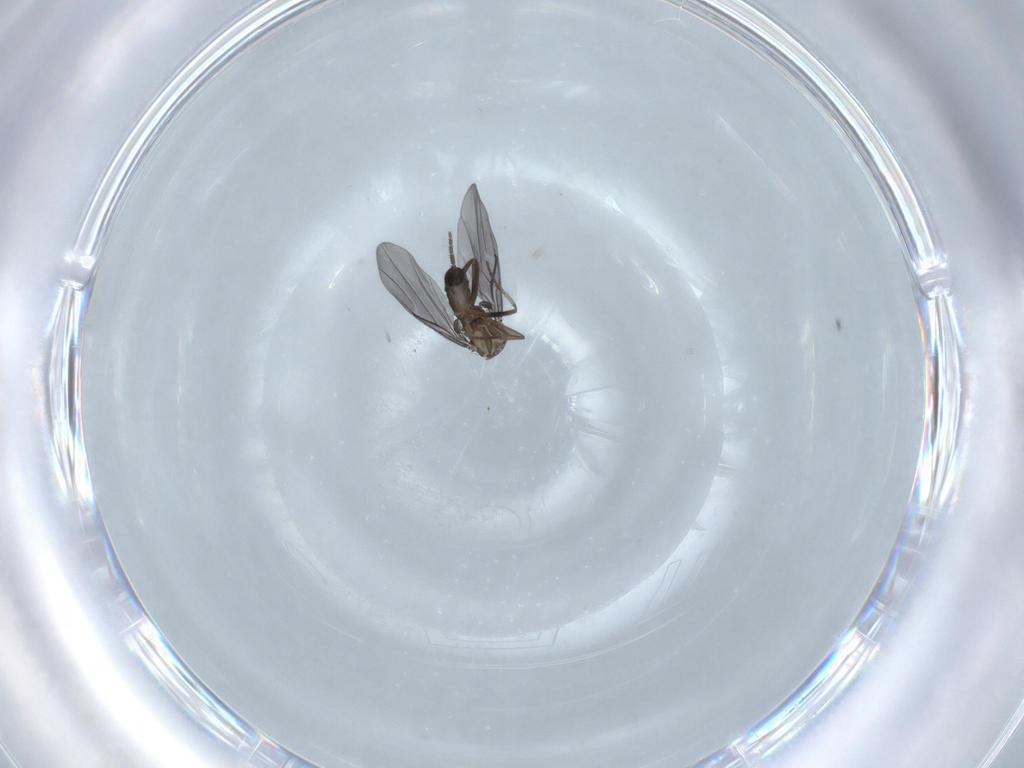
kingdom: Animalia
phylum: Arthropoda
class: Insecta
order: Diptera
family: Phoridae
